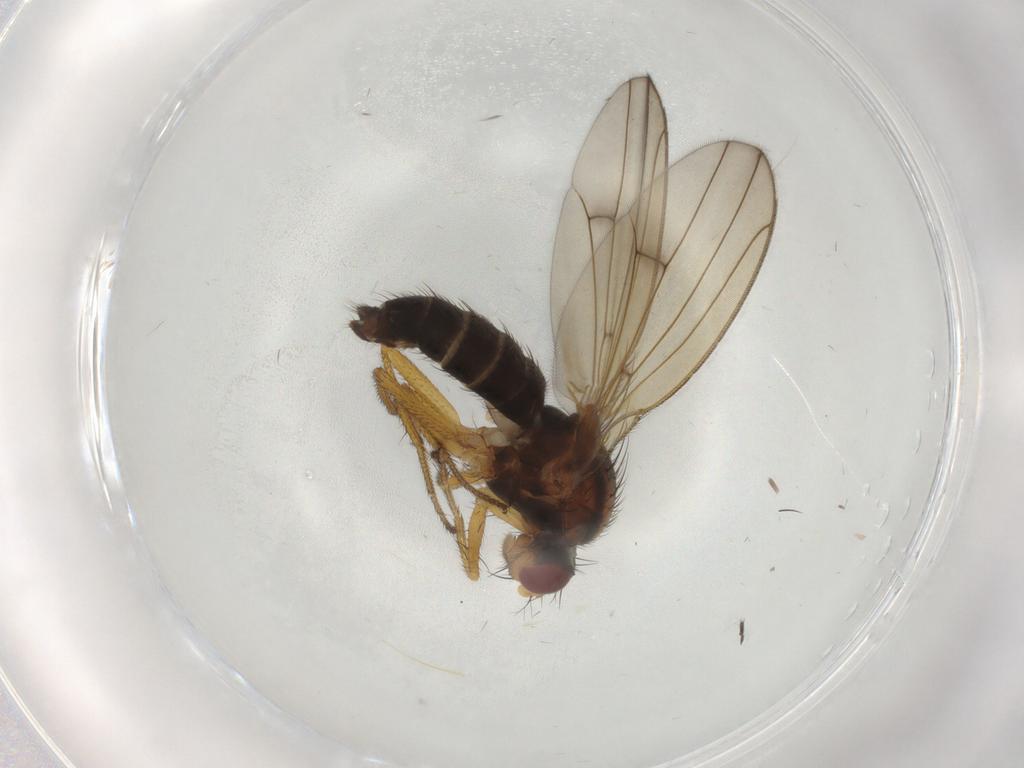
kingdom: Animalia
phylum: Arthropoda
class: Insecta
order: Diptera
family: Drosophilidae
